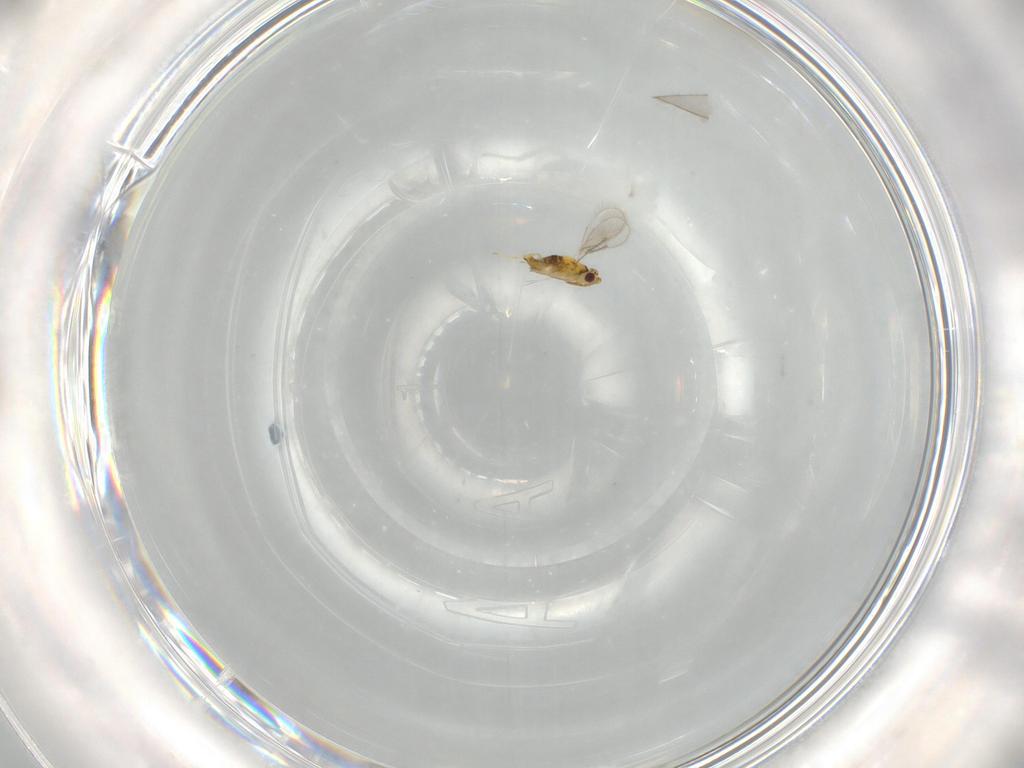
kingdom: Animalia
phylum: Arthropoda
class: Insecta
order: Hymenoptera
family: Aphelinidae
